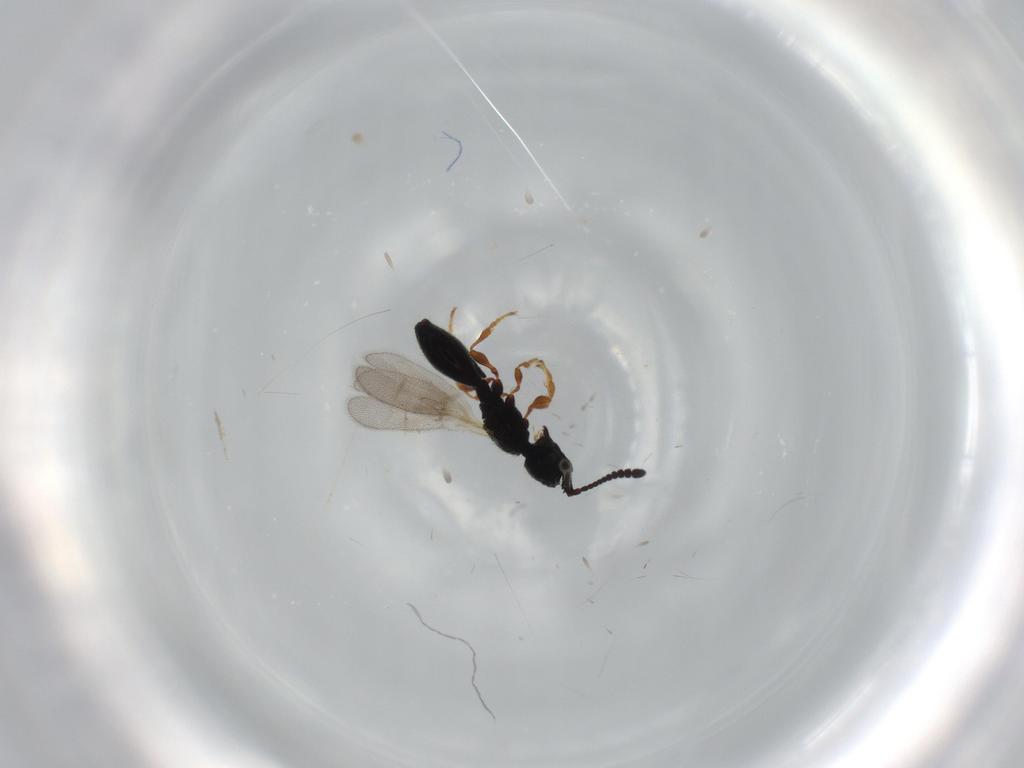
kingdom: Animalia
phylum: Arthropoda
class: Insecta
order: Hymenoptera
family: Diapriidae
